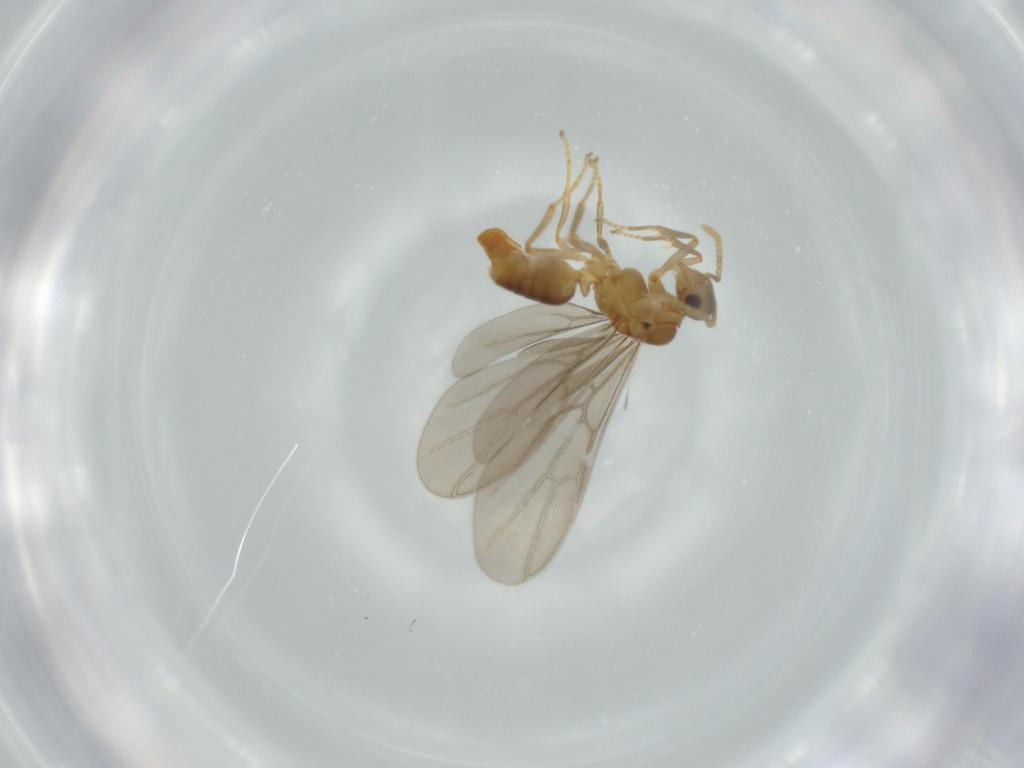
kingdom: Animalia
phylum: Arthropoda
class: Insecta
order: Hymenoptera
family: Formicidae
